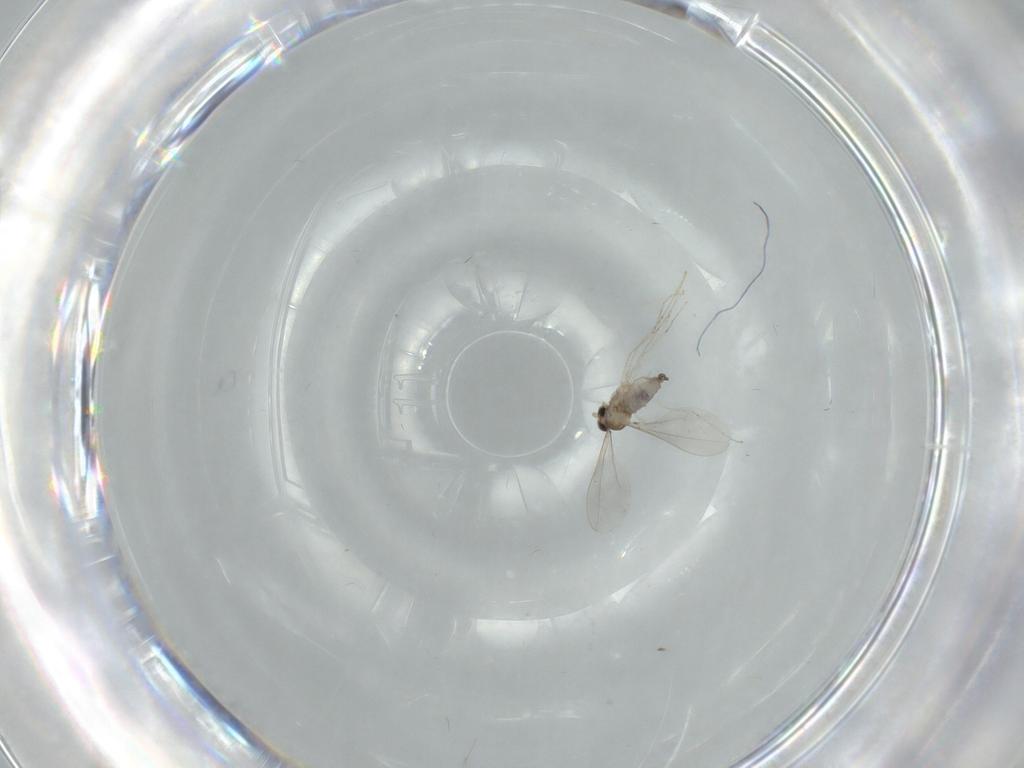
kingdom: Animalia
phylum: Arthropoda
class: Insecta
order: Diptera
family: Cecidomyiidae
